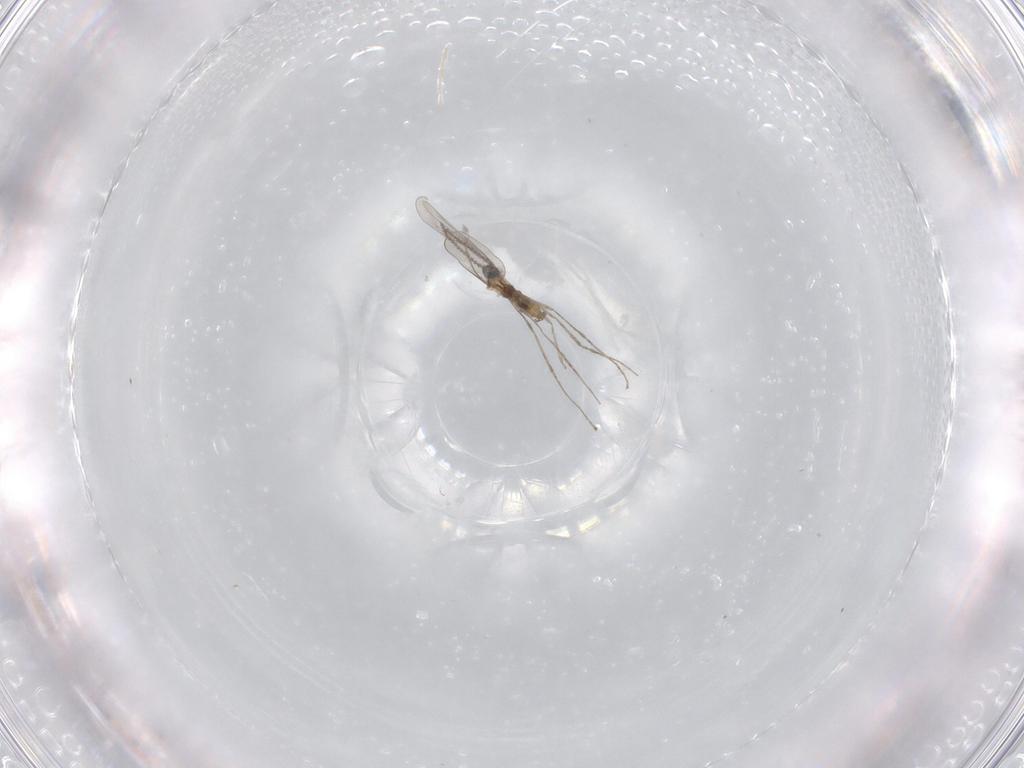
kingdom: Animalia
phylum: Arthropoda
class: Insecta
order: Diptera
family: Cecidomyiidae
